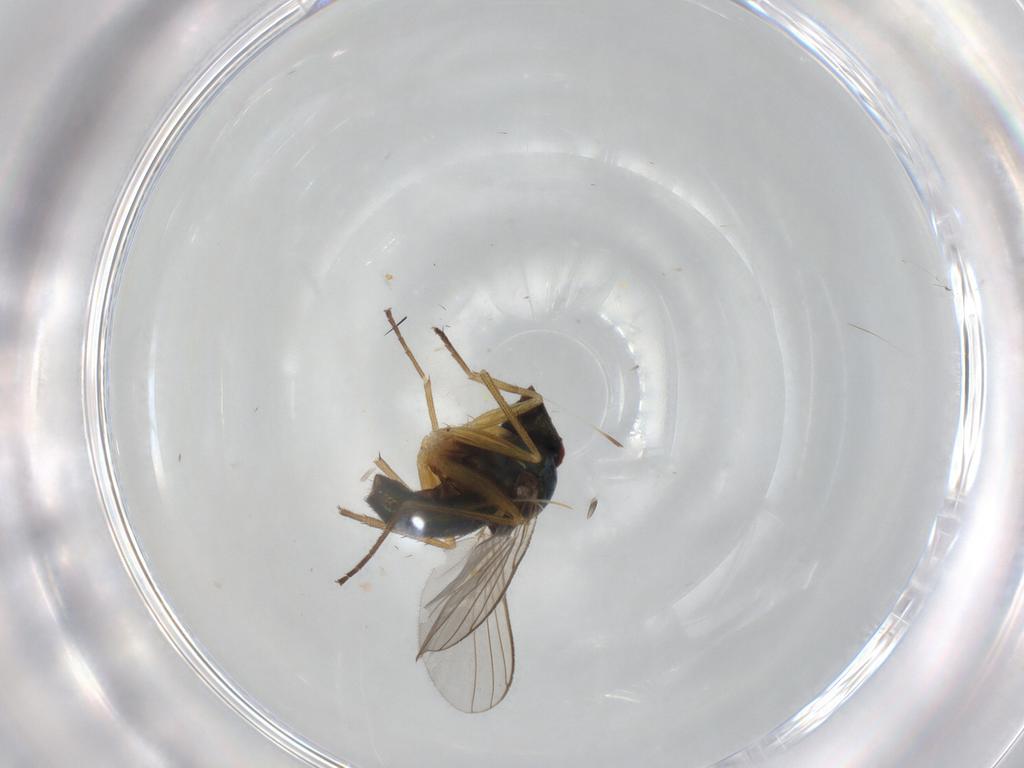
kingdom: Animalia
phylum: Arthropoda
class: Insecta
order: Diptera
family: Dolichopodidae
